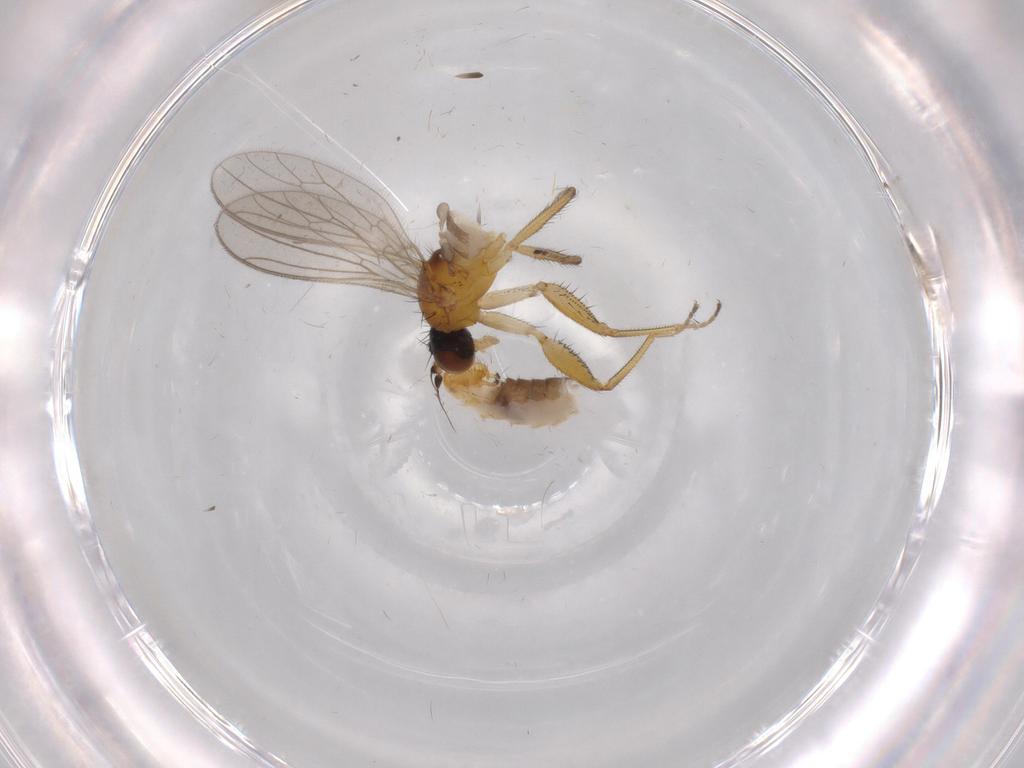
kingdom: Animalia
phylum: Arthropoda
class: Insecta
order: Diptera
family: Empididae
